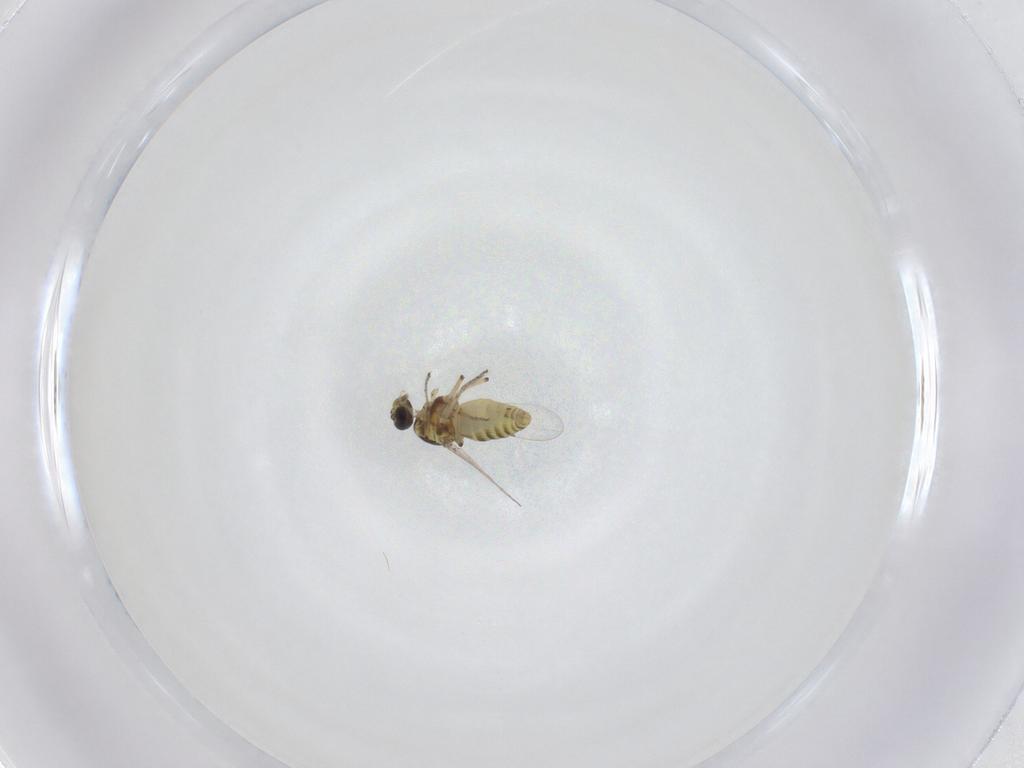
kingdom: Animalia
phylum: Arthropoda
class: Insecta
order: Diptera
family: Ceratopogonidae
